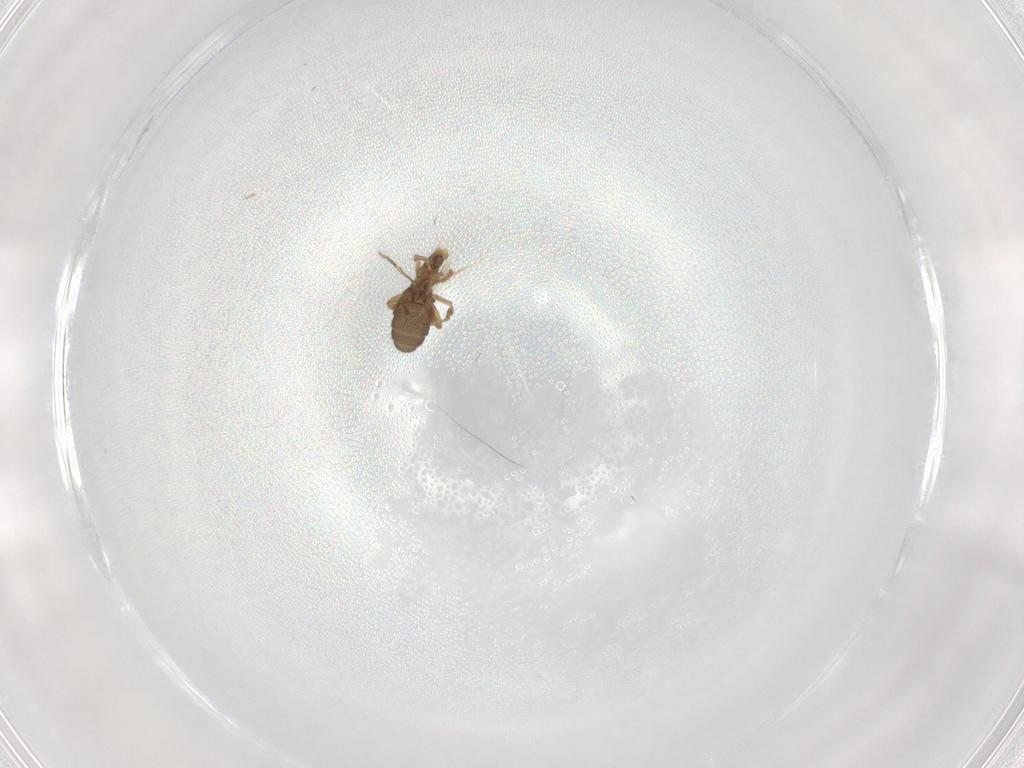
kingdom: Animalia
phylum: Arthropoda
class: Insecta
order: Diptera
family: Phoridae
